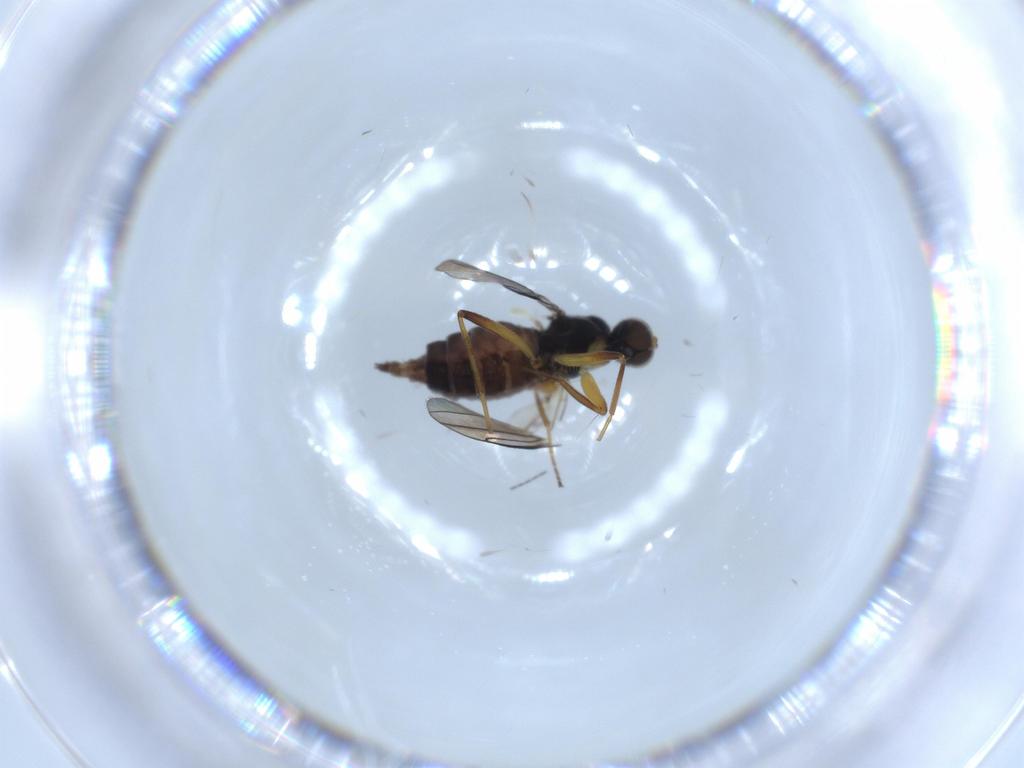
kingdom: Animalia
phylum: Arthropoda
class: Insecta
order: Diptera
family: Hybotidae
